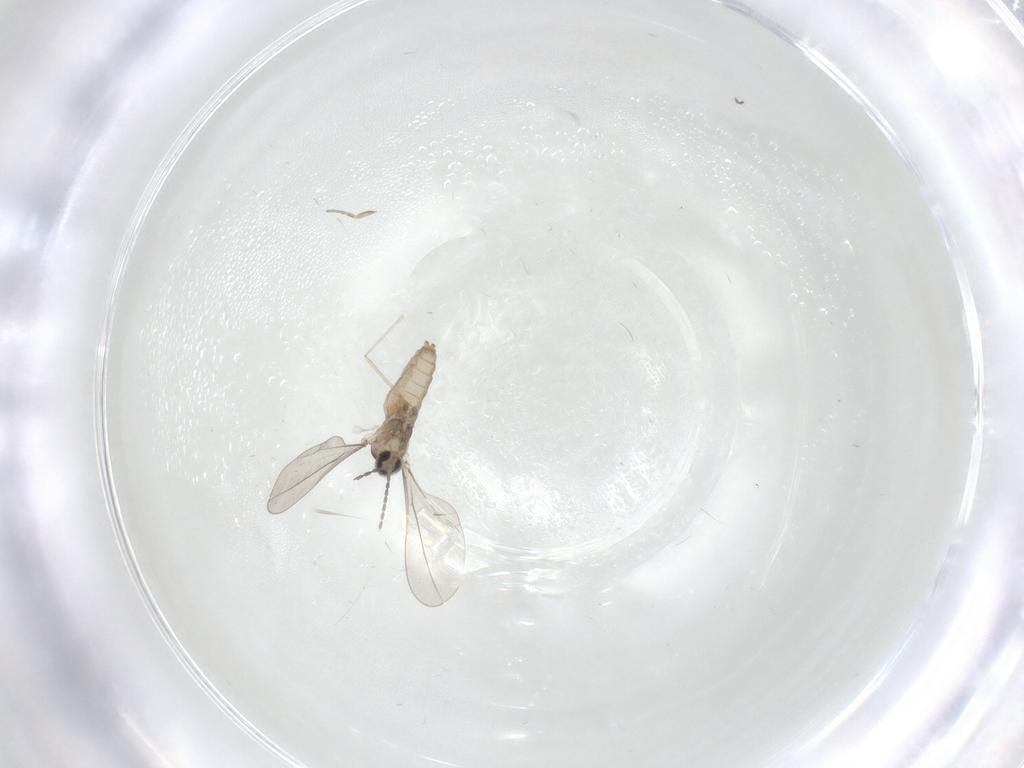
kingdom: Animalia
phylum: Arthropoda
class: Insecta
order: Diptera
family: Cecidomyiidae
